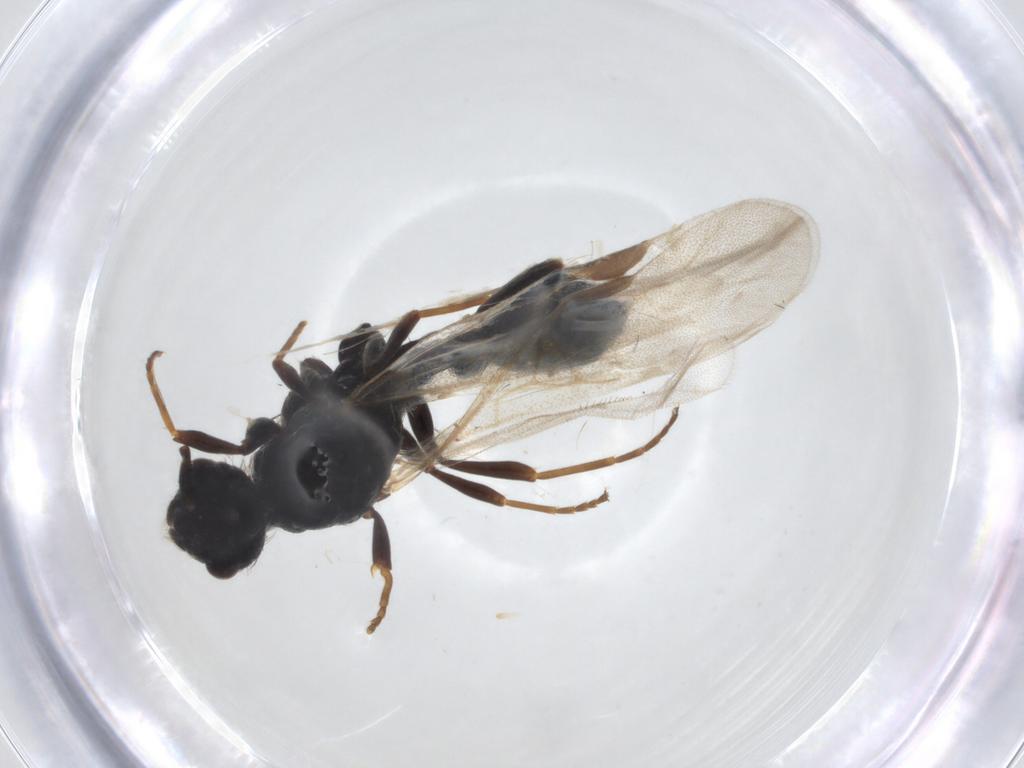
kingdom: Animalia
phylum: Arthropoda
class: Insecta
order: Hymenoptera
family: Formicidae
